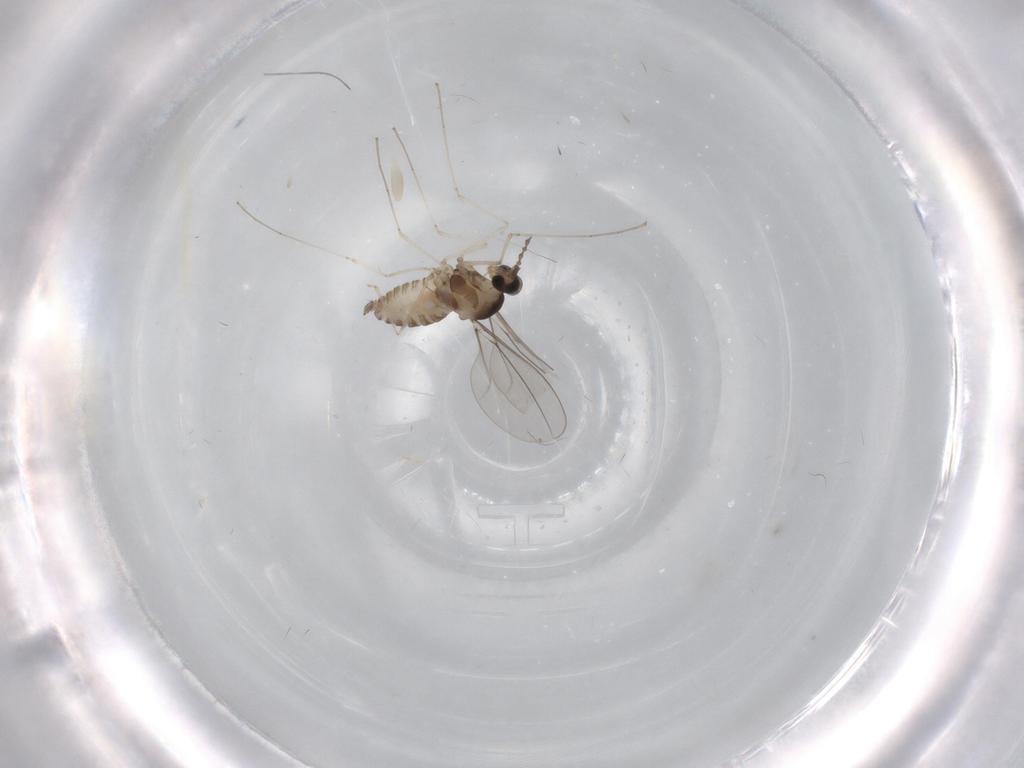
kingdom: Animalia
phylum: Arthropoda
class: Insecta
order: Diptera
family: Cecidomyiidae
